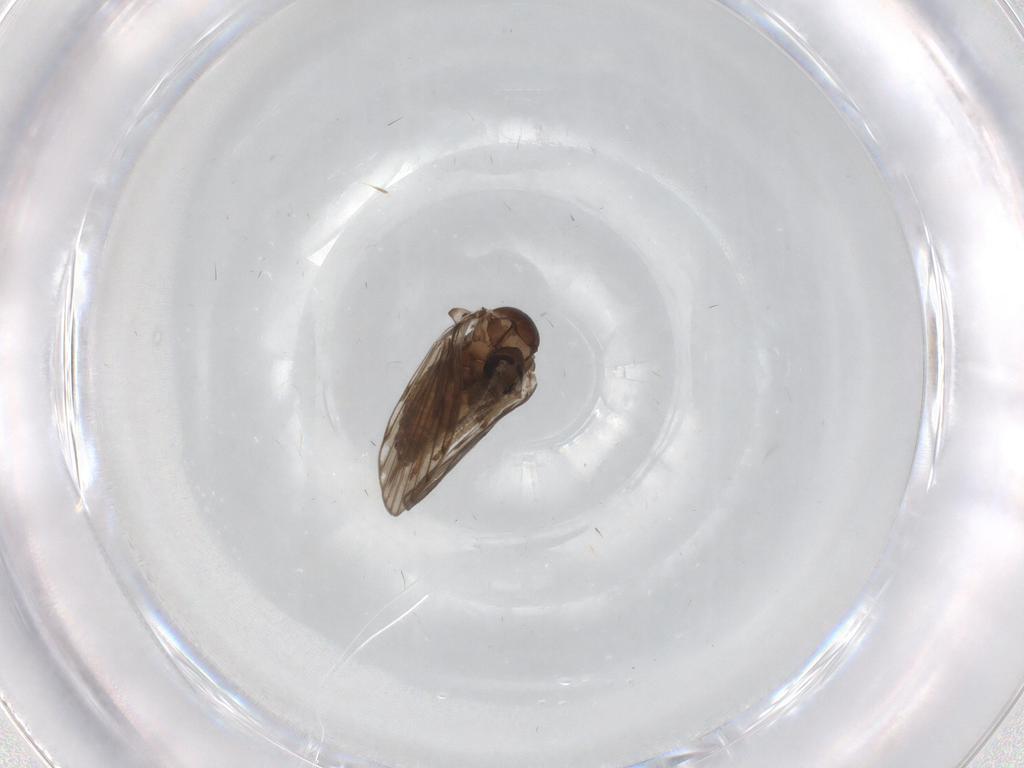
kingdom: Animalia
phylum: Arthropoda
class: Insecta
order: Diptera
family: Psychodidae
